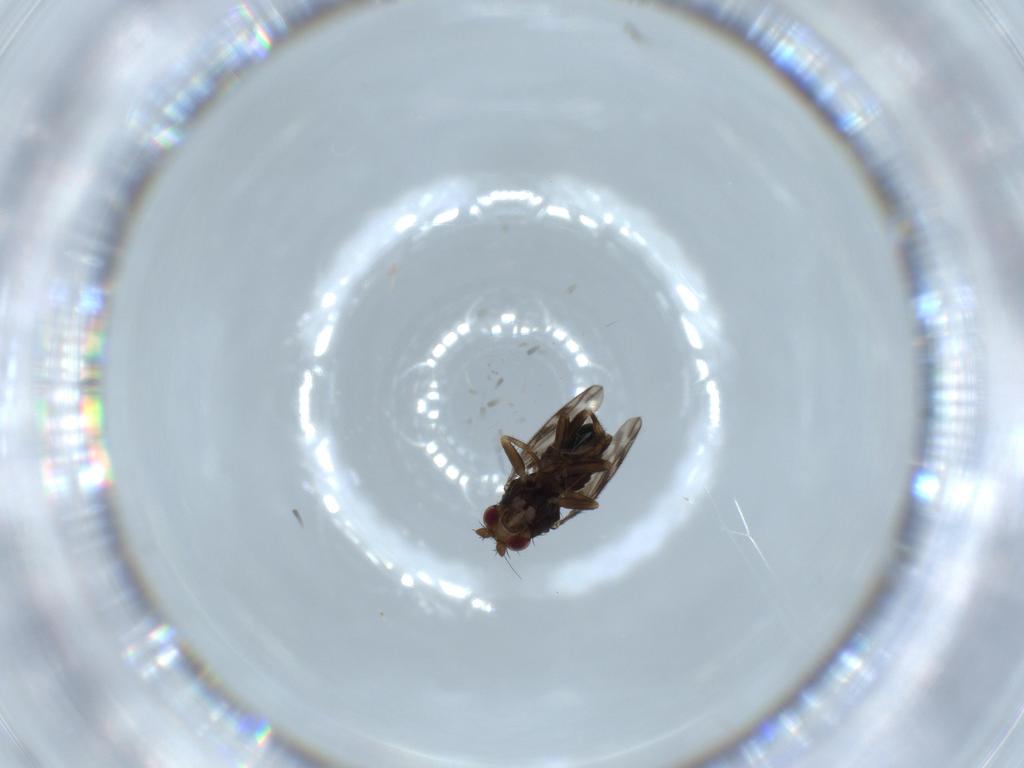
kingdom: Animalia
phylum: Arthropoda
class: Insecta
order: Diptera
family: Sphaeroceridae
